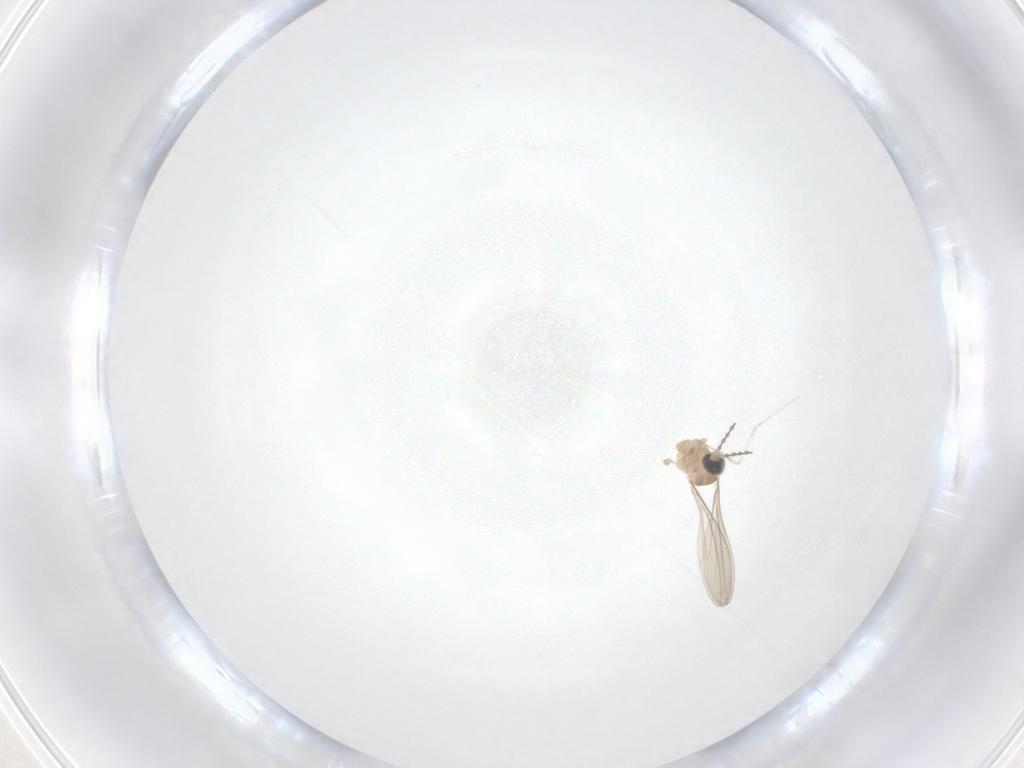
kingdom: Animalia
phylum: Arthropoda
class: Insecta
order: Diptera
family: Cecidomyiidae
